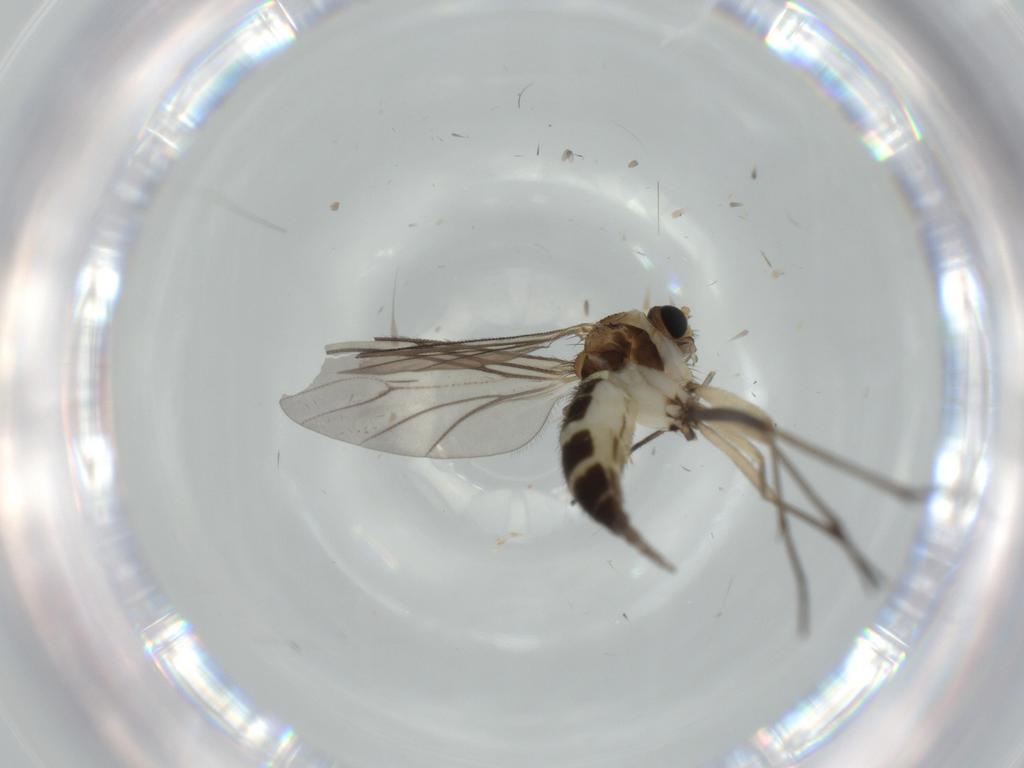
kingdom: Animalia
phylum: Arthropoda
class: Insecta
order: Diptera
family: Sciaridae
